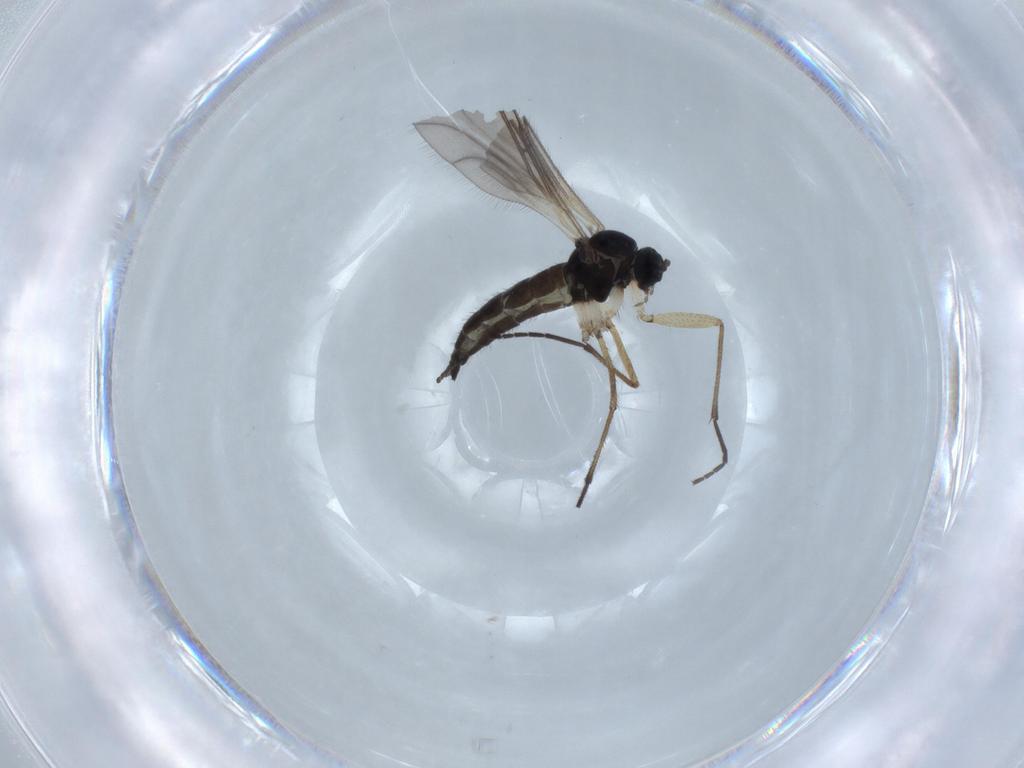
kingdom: Animalia
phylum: Arthropoda
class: Insecta
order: Diptera
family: Sciaridae
